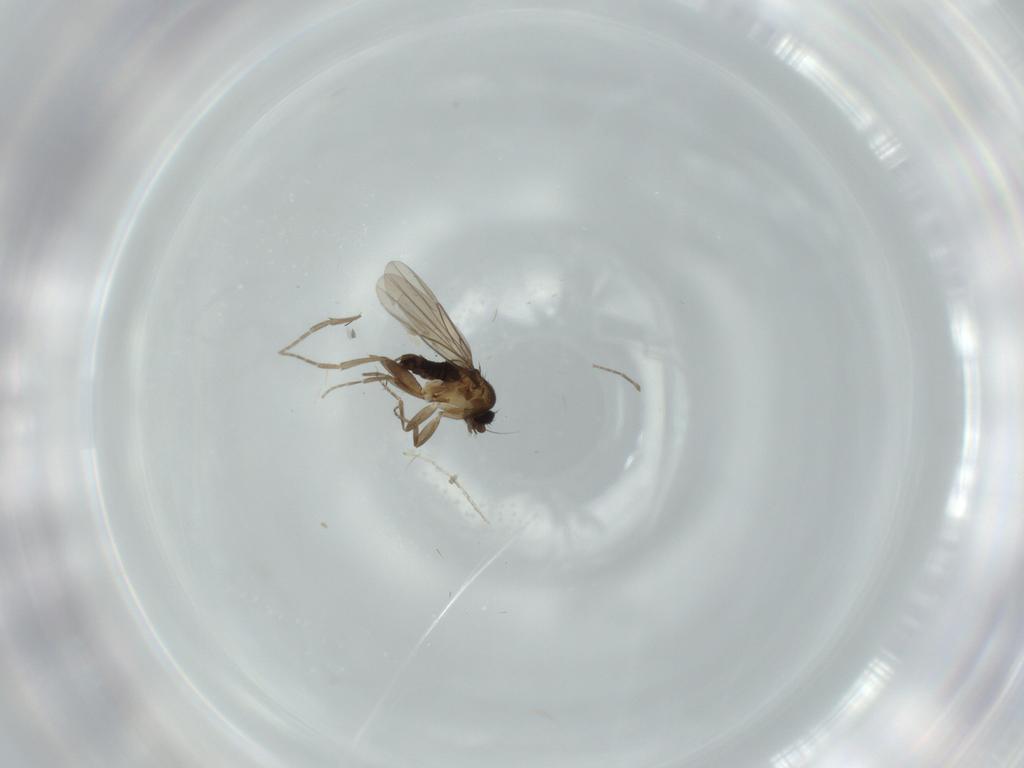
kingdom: Animalia
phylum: Arthropoda
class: Insecta
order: Diptera
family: Phoridae
